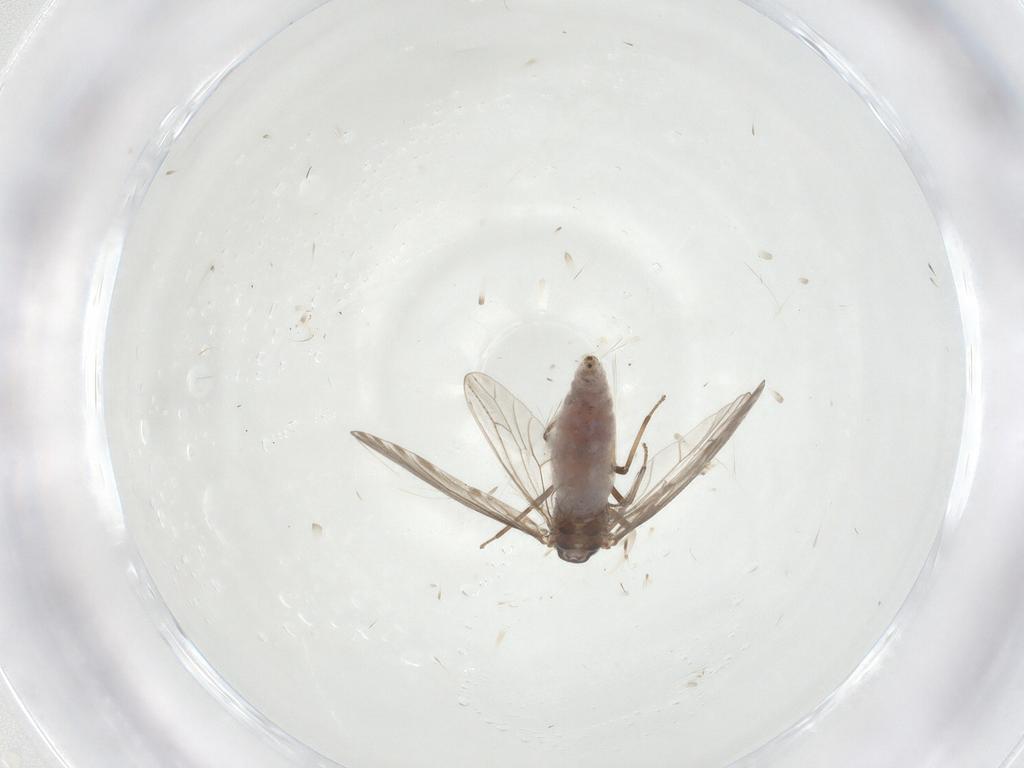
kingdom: Animalia
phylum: Arthropoda
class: Insecta
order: Neuroptera
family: Coniopterygidae
